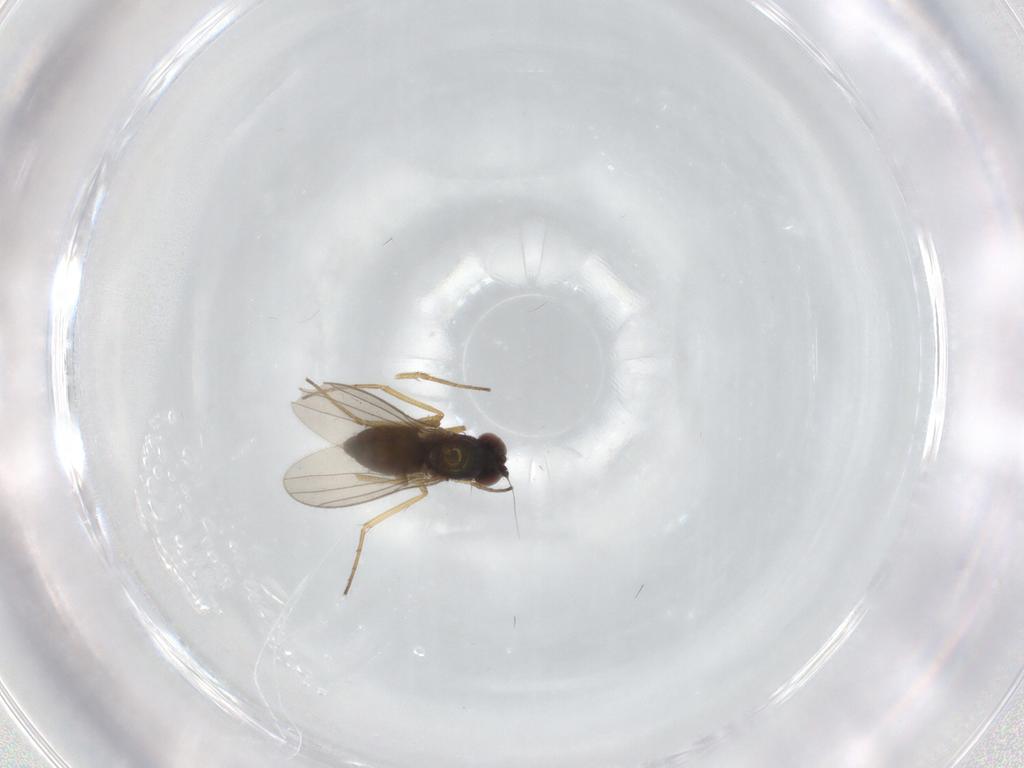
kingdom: Animalia
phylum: Arthropoda
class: Insecta
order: Diptera
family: Dolichopodidae
